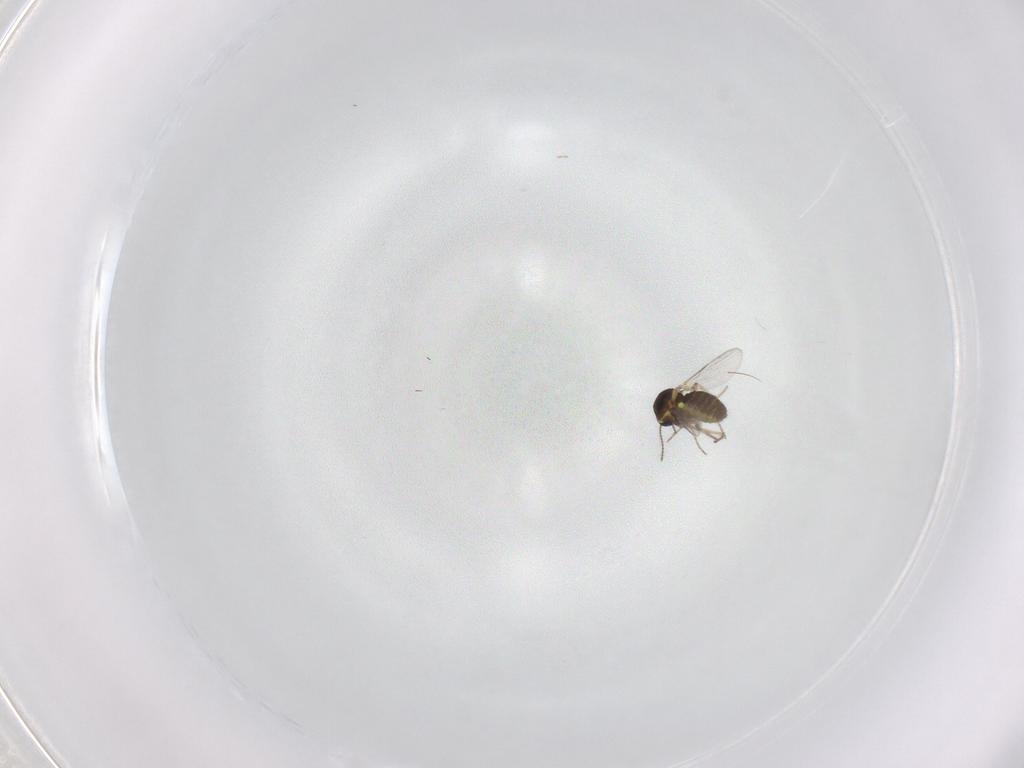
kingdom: Animalia
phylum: Arthropoda
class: Insecta
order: Diptera
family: Ceratopogonidae
